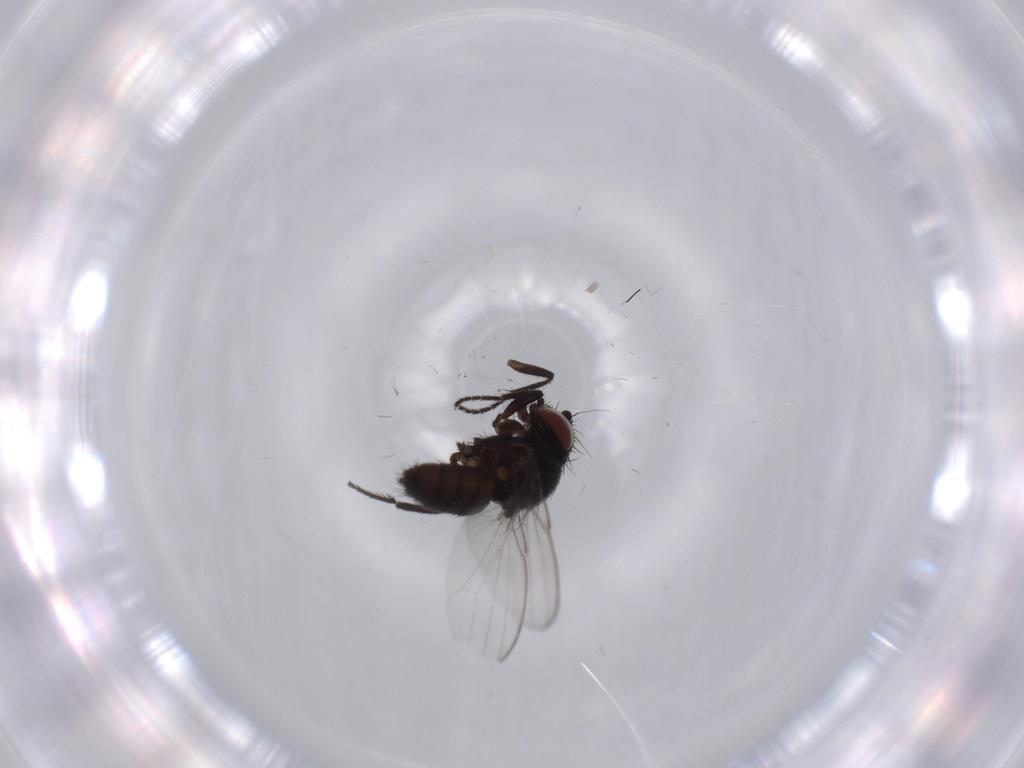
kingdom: Animalia
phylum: Arthropoda
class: Insecta
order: Diptera
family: Milichiidae
